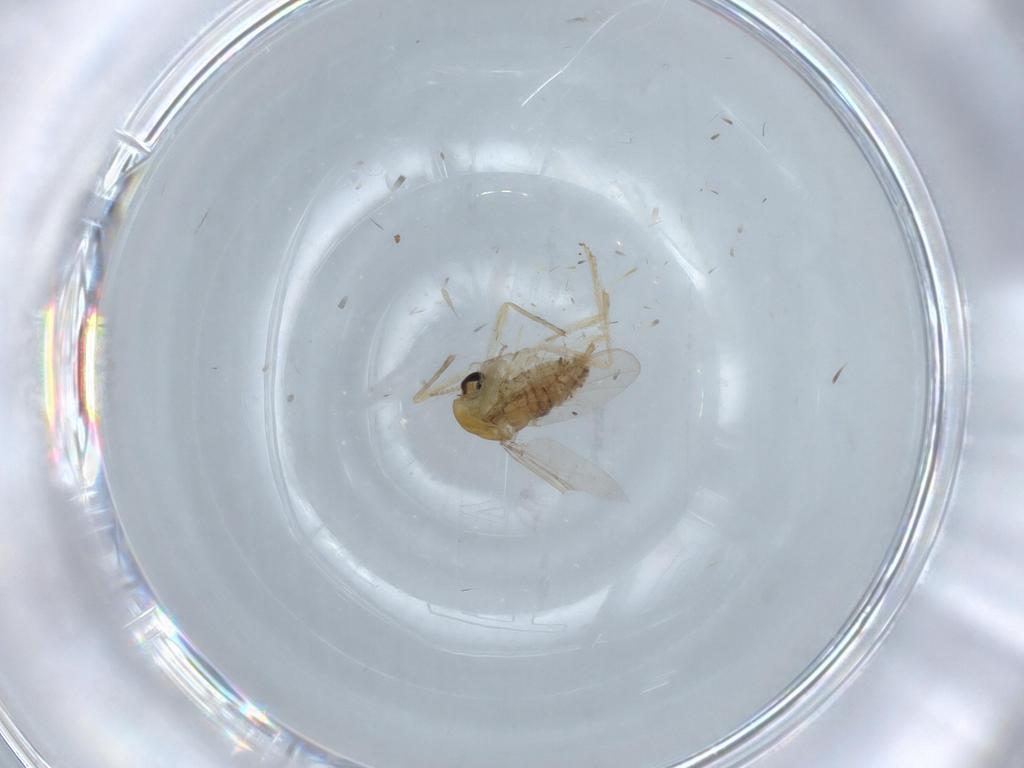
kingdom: Animalia
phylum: Arthropoda
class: Insecta
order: Diptera
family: Chironomidae
